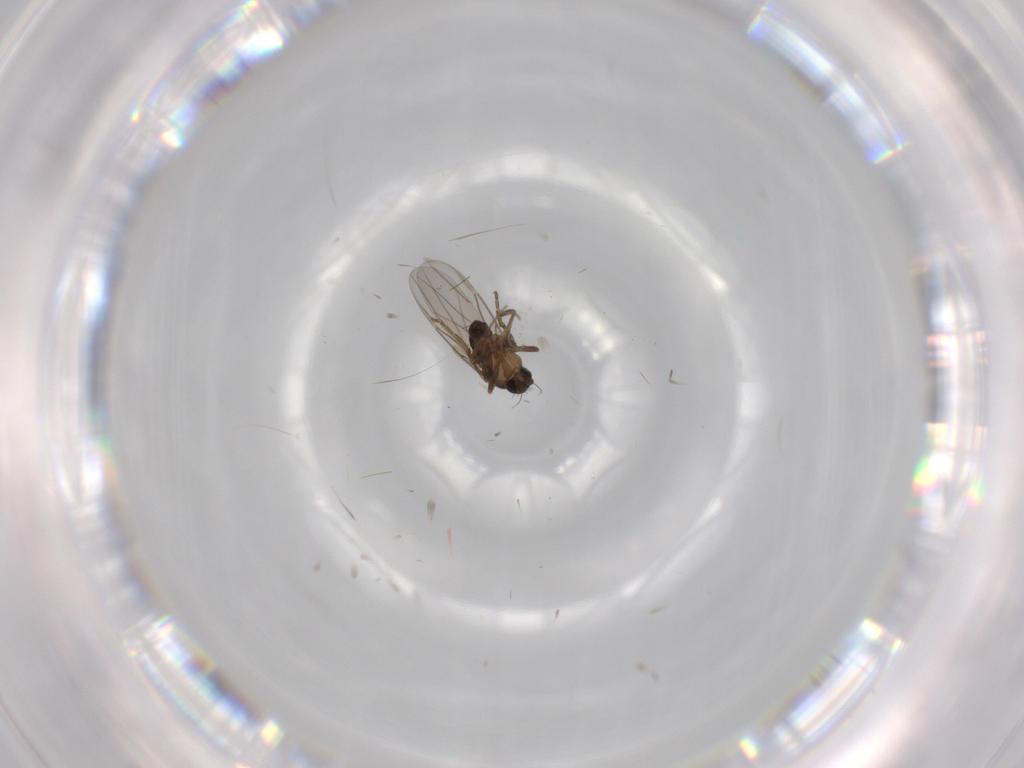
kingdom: Animalia
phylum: Arthropoda
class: Insecta
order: Diptera
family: Phoridae
